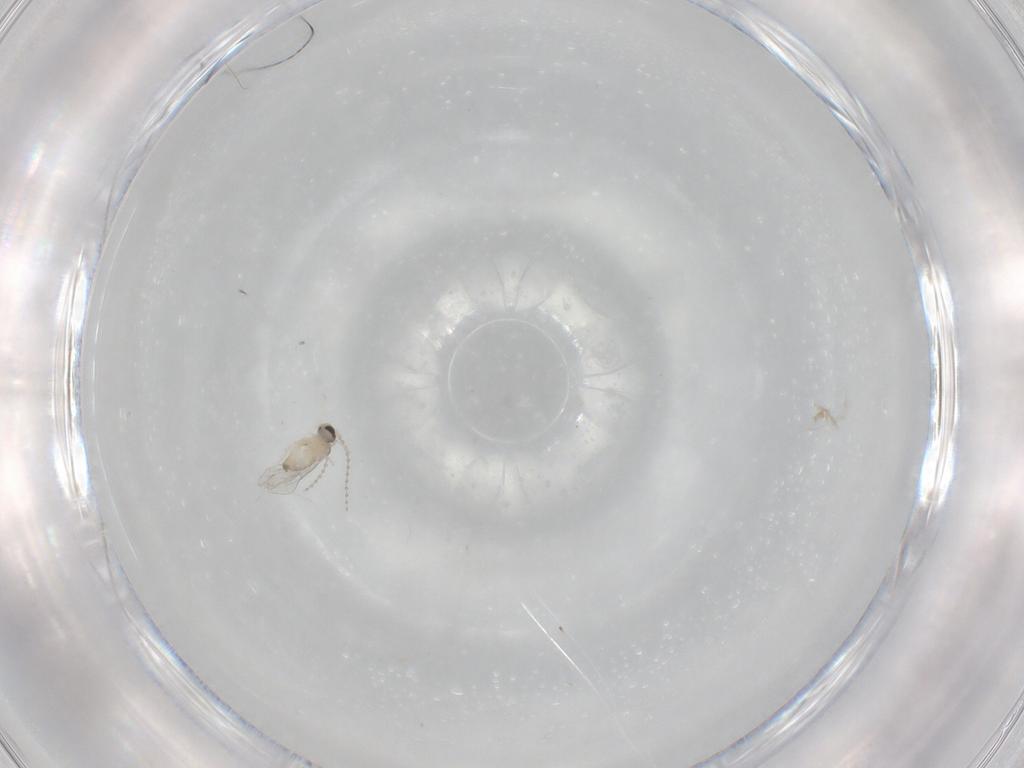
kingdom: Animalia
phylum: Arthropoda
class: Insecta
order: Diptera
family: Cecidomyiidae
